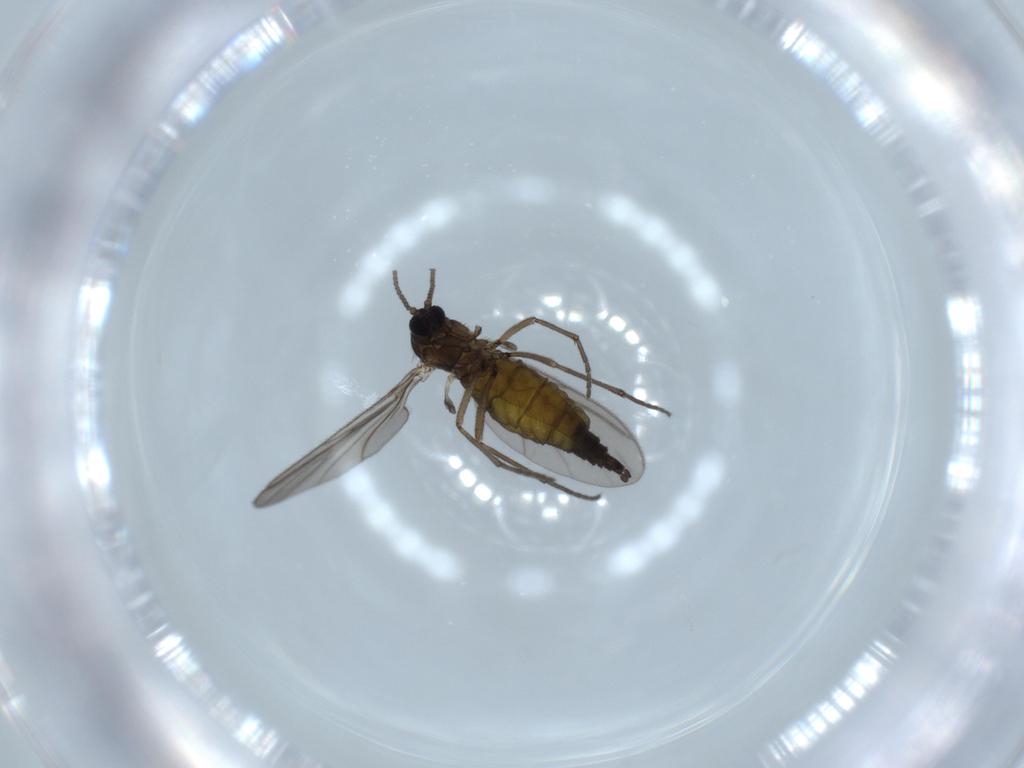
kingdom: Animalia
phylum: Arthropoda
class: Insecta
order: Diptera
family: Sciaridae
